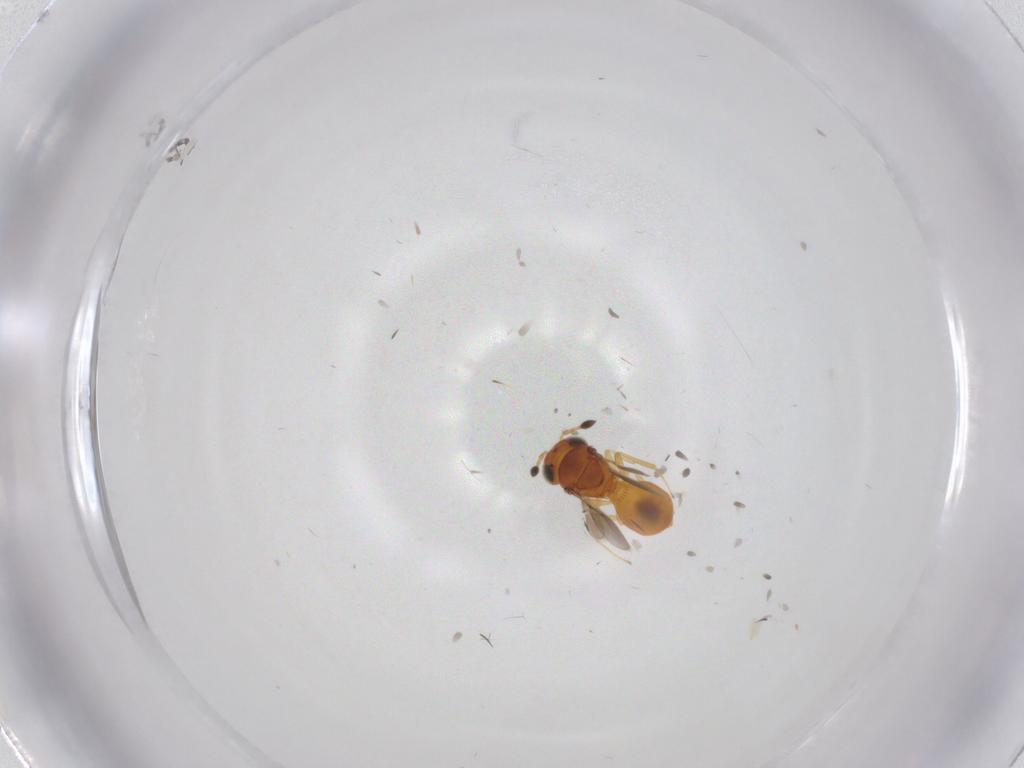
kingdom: Animalia
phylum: Arthropoda
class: Insecta
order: Hymenoptera
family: Scelionidae
